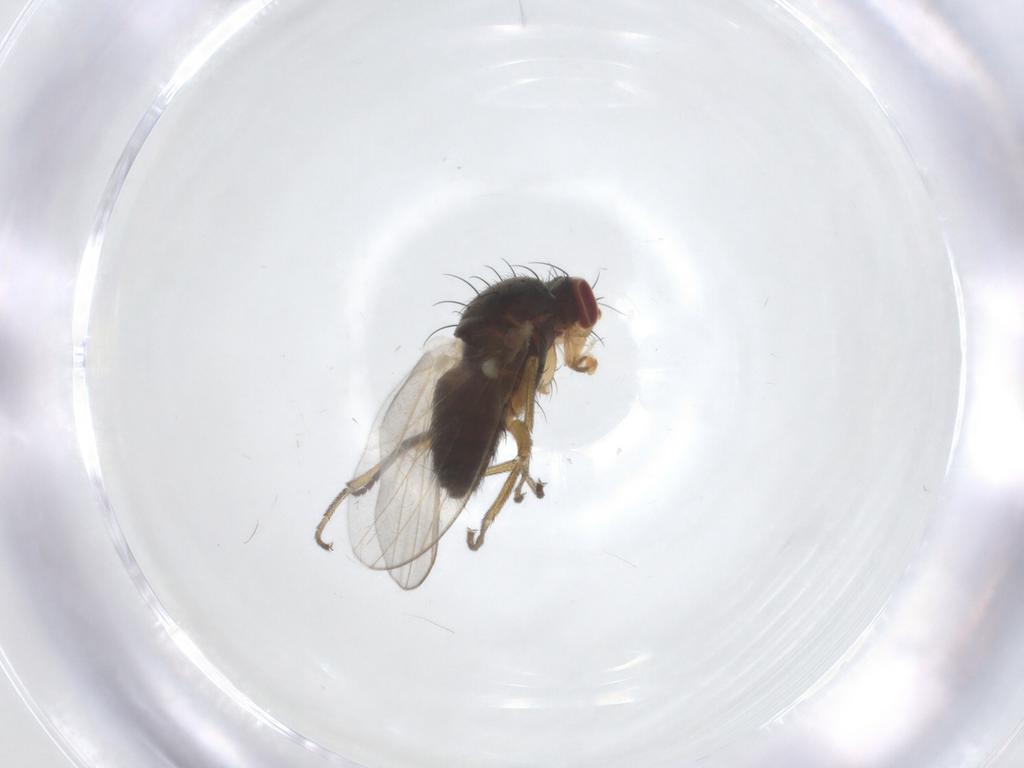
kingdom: Animalia
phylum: Arthropoda
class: Insecta
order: Diptera
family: Heleomyzidae
